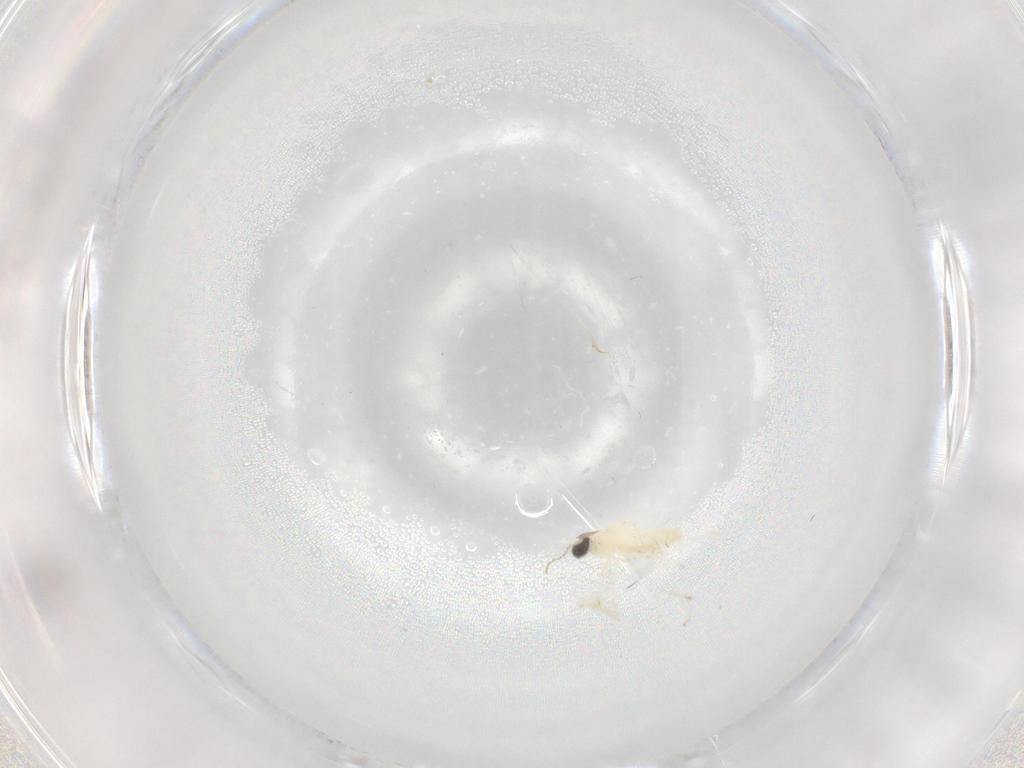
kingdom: Animalia
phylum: Arthropoda
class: Insecta
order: Diptera
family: Cecidomyiidae
